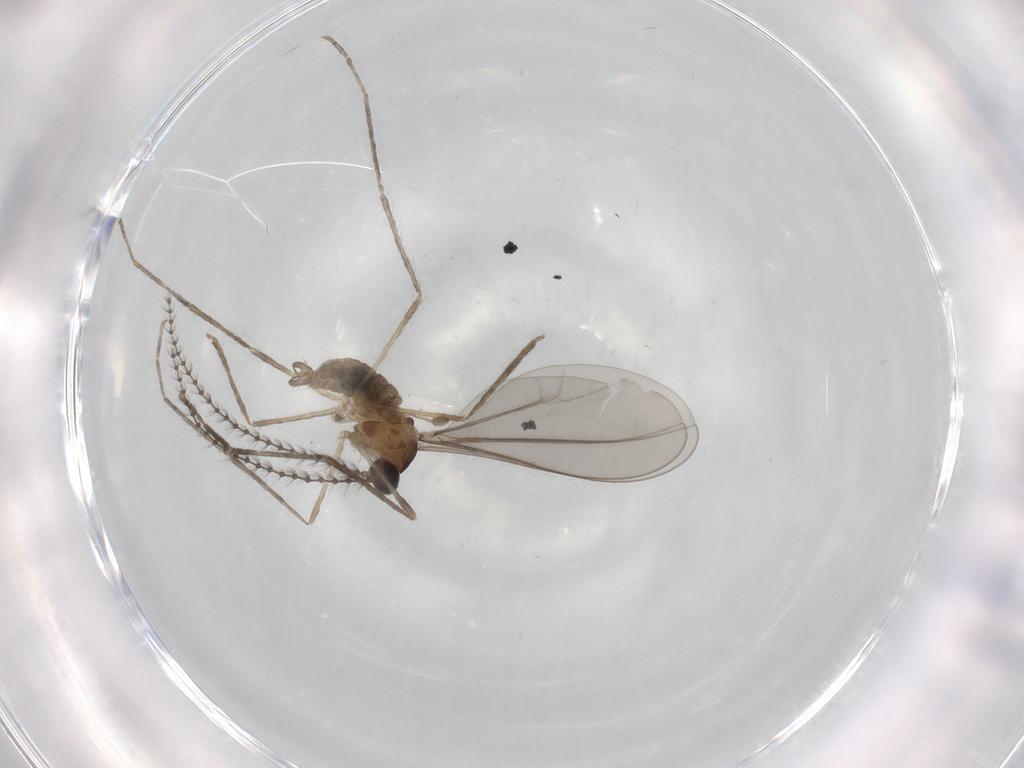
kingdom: Animalia
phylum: Arthropoda
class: Insecta
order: Diptera
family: Cecidomyiidae
